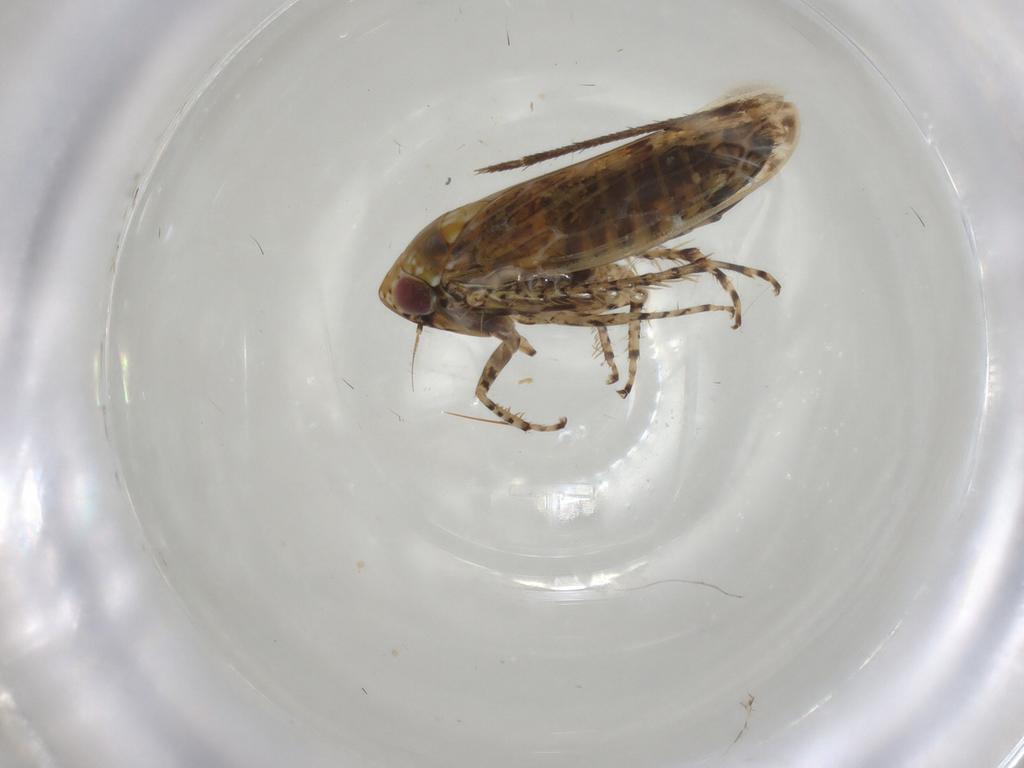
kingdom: Animalia
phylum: Arthropoda
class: Insecta
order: Hemiptera
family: Cicadellidae
